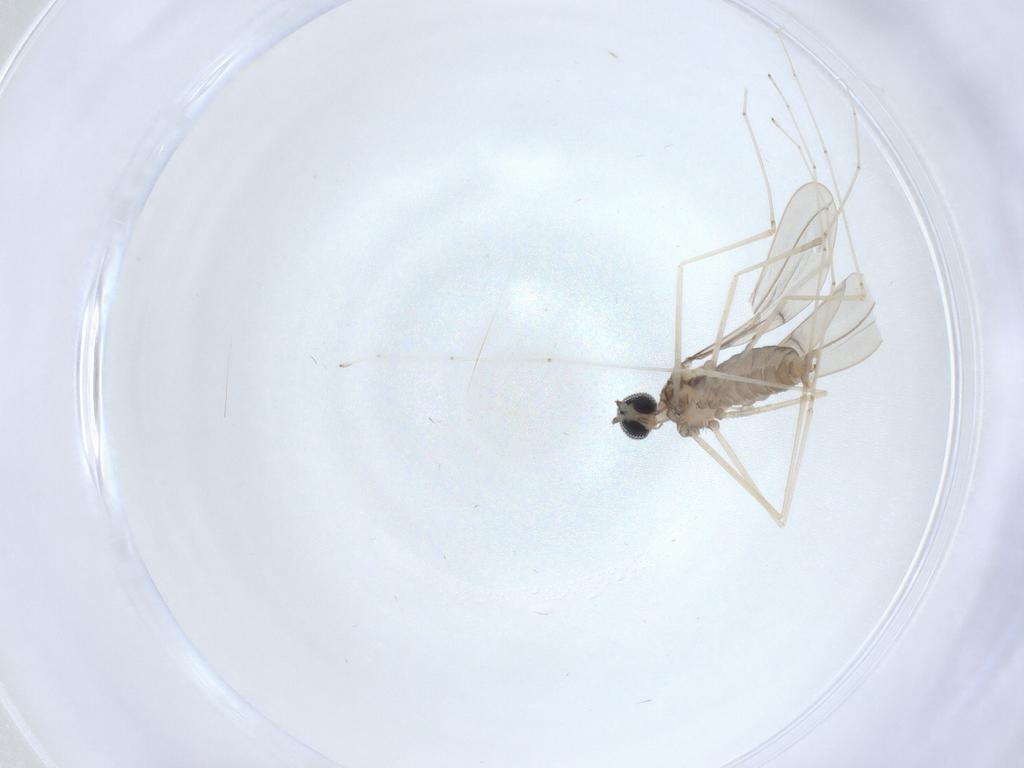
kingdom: Animalia
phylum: Arthropoda
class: Insecta
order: Diptera
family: Cecidomyiidae
